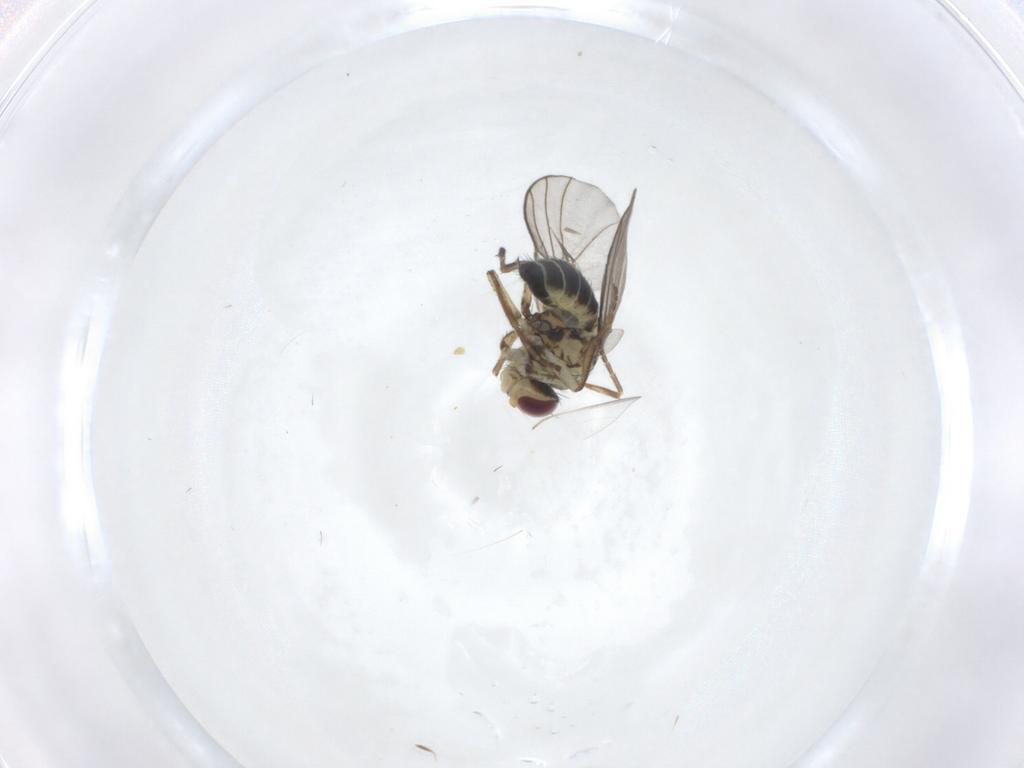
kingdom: Animalia
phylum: Arthropoda
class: Insecta
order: Diptera
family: Agromyzidae
